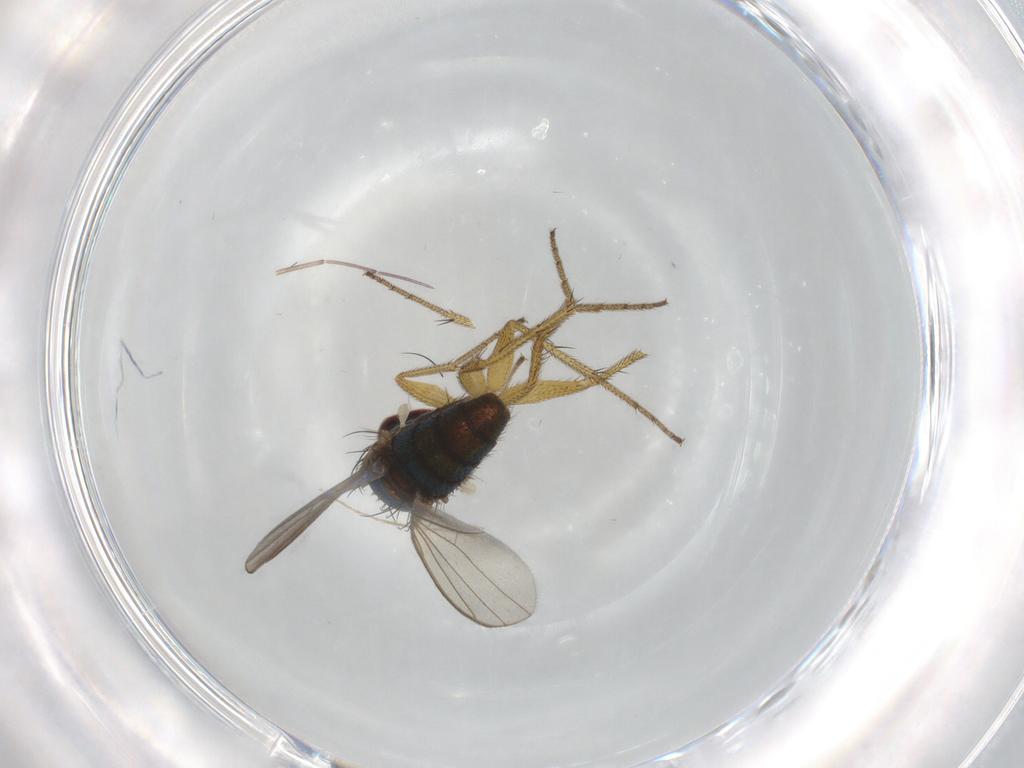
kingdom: Animalia
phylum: Arthropoda
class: Insecta
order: Diptera
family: Dolichopodidae
